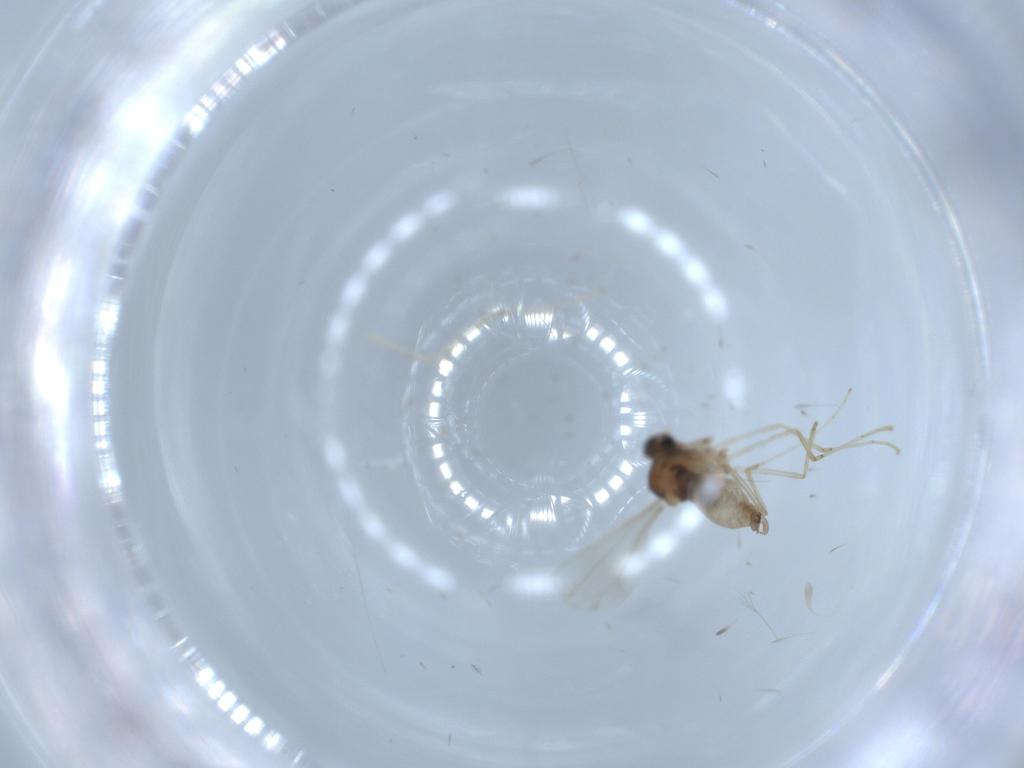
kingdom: Animalia
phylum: Arthropoda
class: Insecta
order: Diptera
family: Cecidomyiidae
